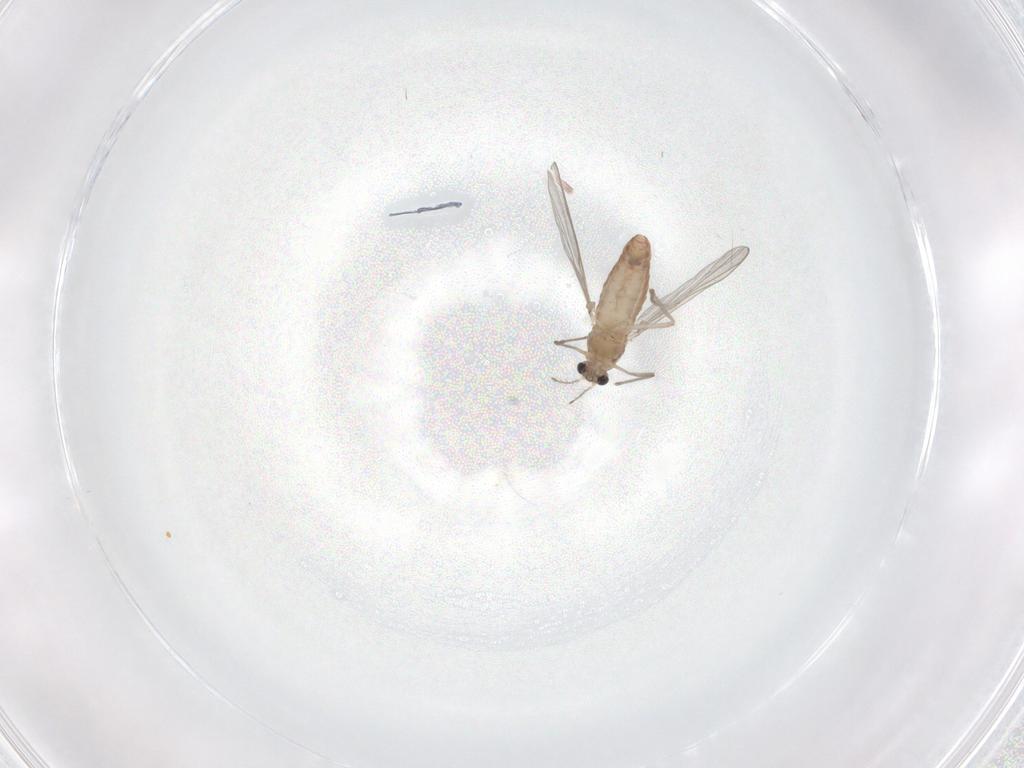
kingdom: Animalia
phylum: Arthropoda
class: Insecta
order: Diptera
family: Chironomidae
